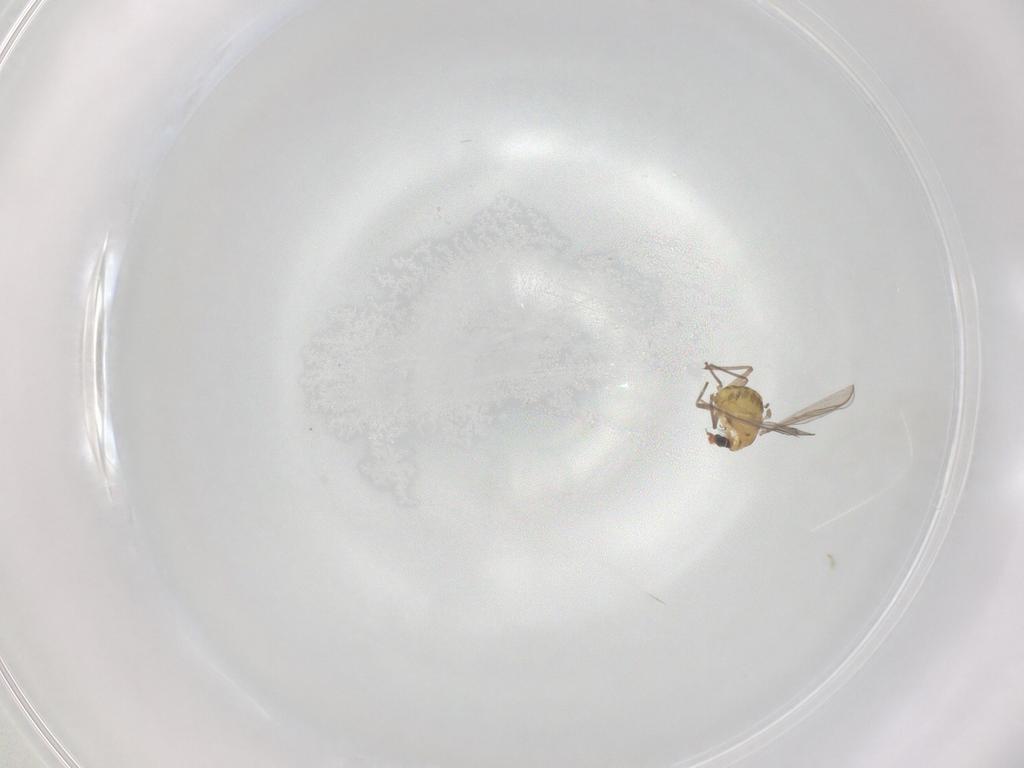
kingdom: Animalia
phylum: Arthropoda
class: Insecta
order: Diptera
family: Chironomidae
